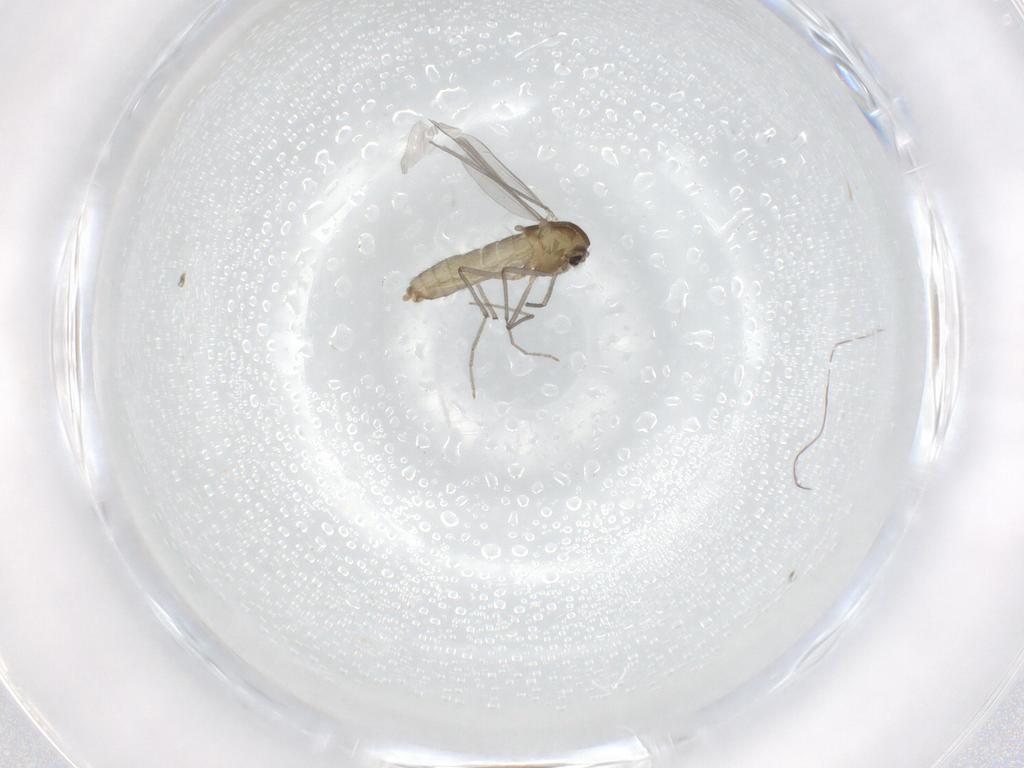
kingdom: Animalia
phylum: Arthropoda
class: Insecta
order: Diptera
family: Chironomidae
